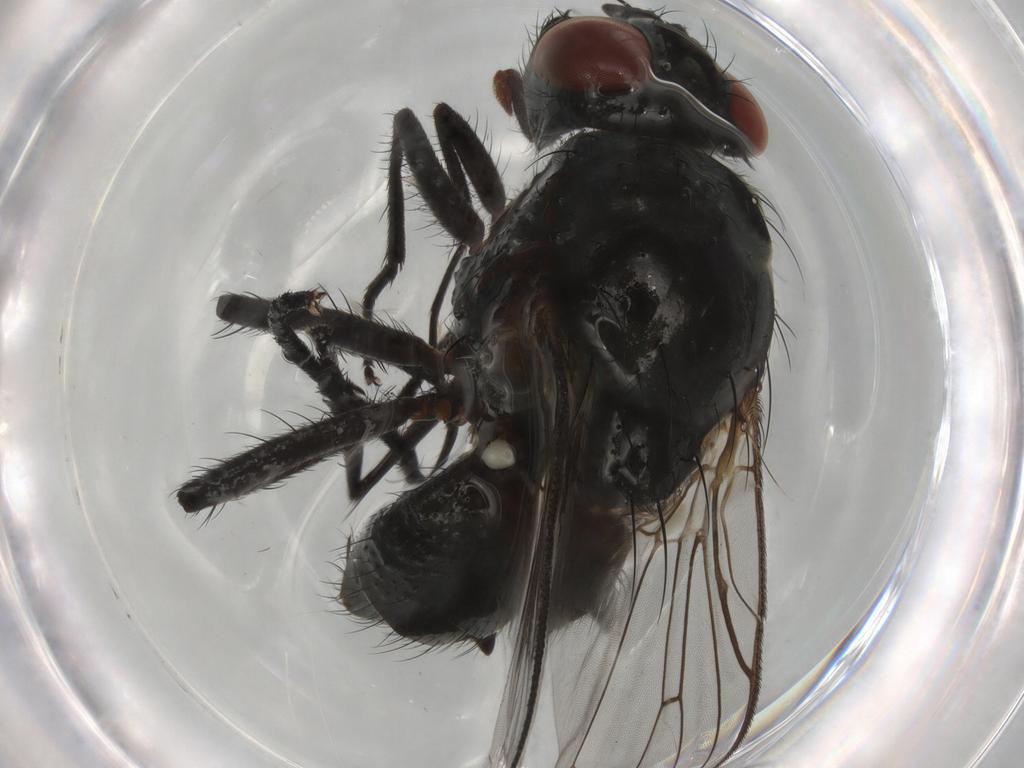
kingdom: Animalia
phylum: Arthropoda
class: Insecta
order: Diptera
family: Anthomyiidae
